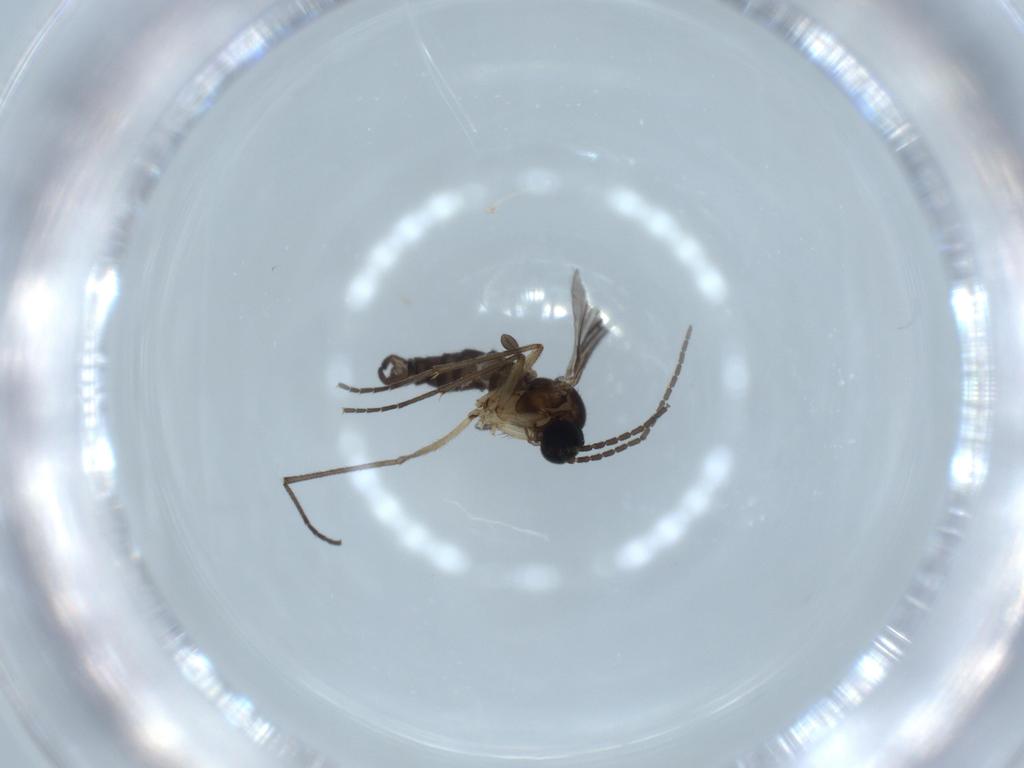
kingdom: Animalia
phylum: Arthropoda
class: Insecta
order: Diptera
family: Sciaridae
